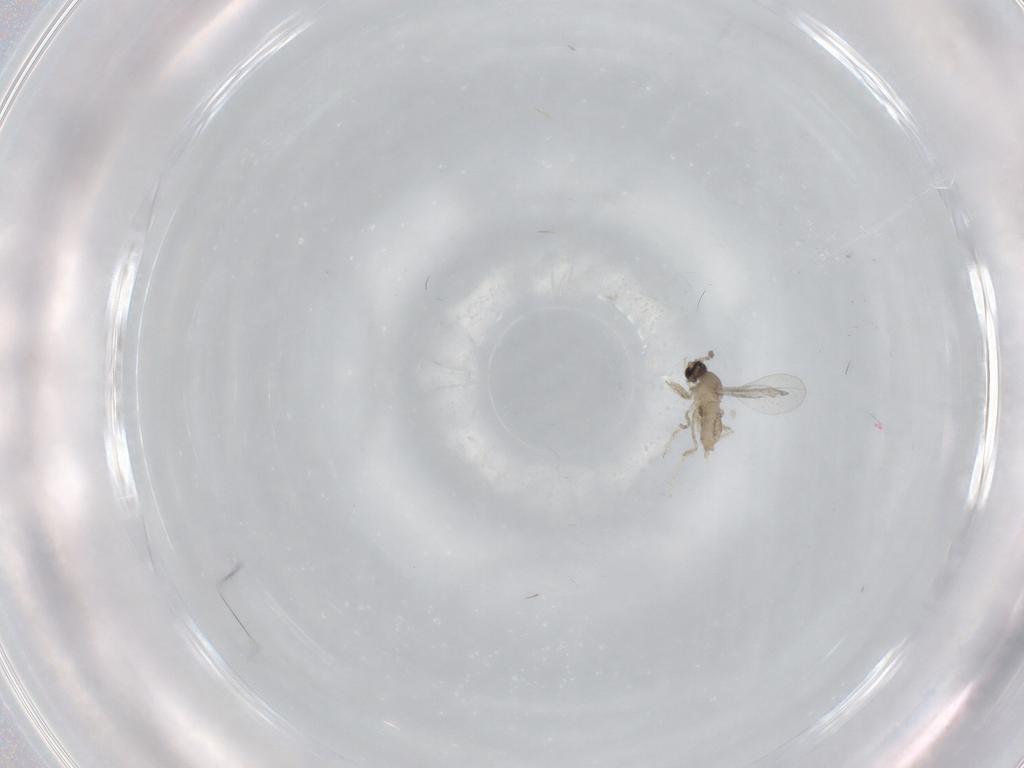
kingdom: Animalia
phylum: Arthropoda
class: Insecta
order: Diptera
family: Cecidomyiidae
